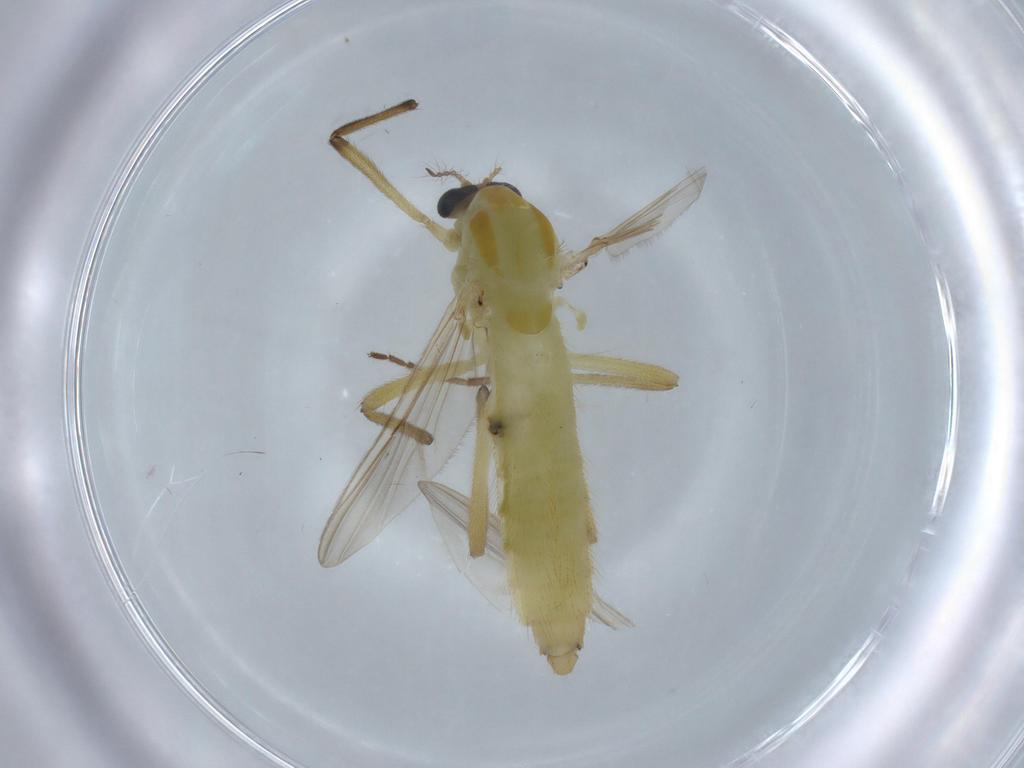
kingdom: Animalia
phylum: Arthropoda
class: Insecta
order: Diptera
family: Chironomidae
